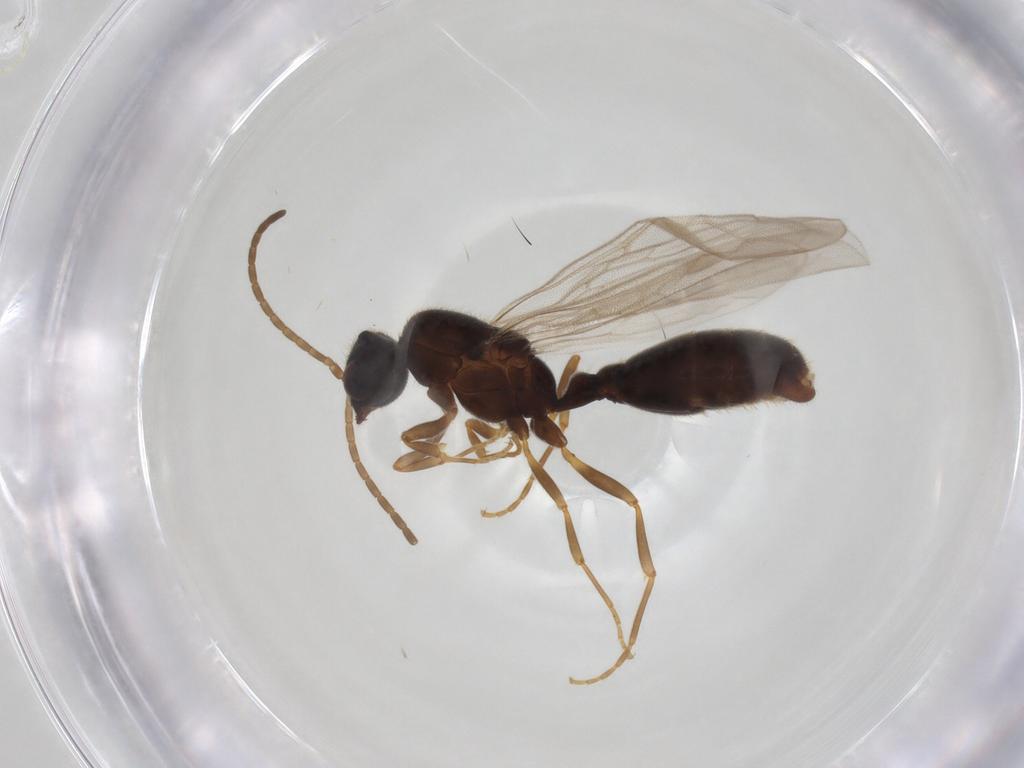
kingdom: Animalia
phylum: Arthropoda
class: Insecta
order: Hymenoptera
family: Formicidae
